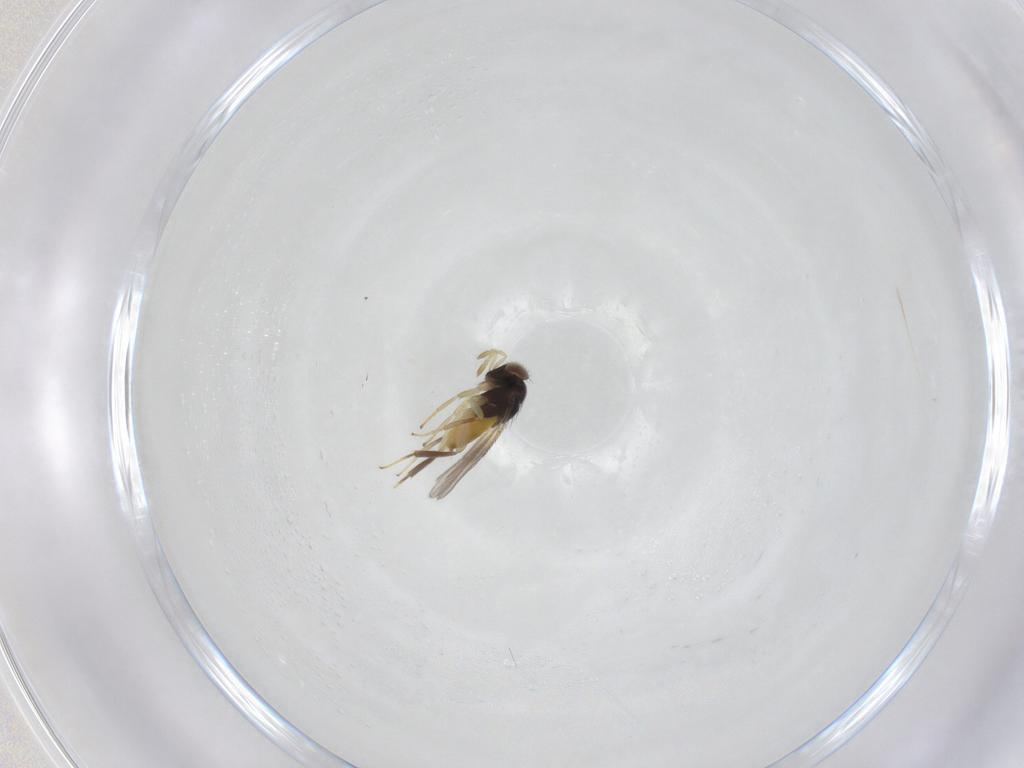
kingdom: Animalia
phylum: Arthropoda
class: Insecta
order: Hymenoptera
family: Aphelinidae
